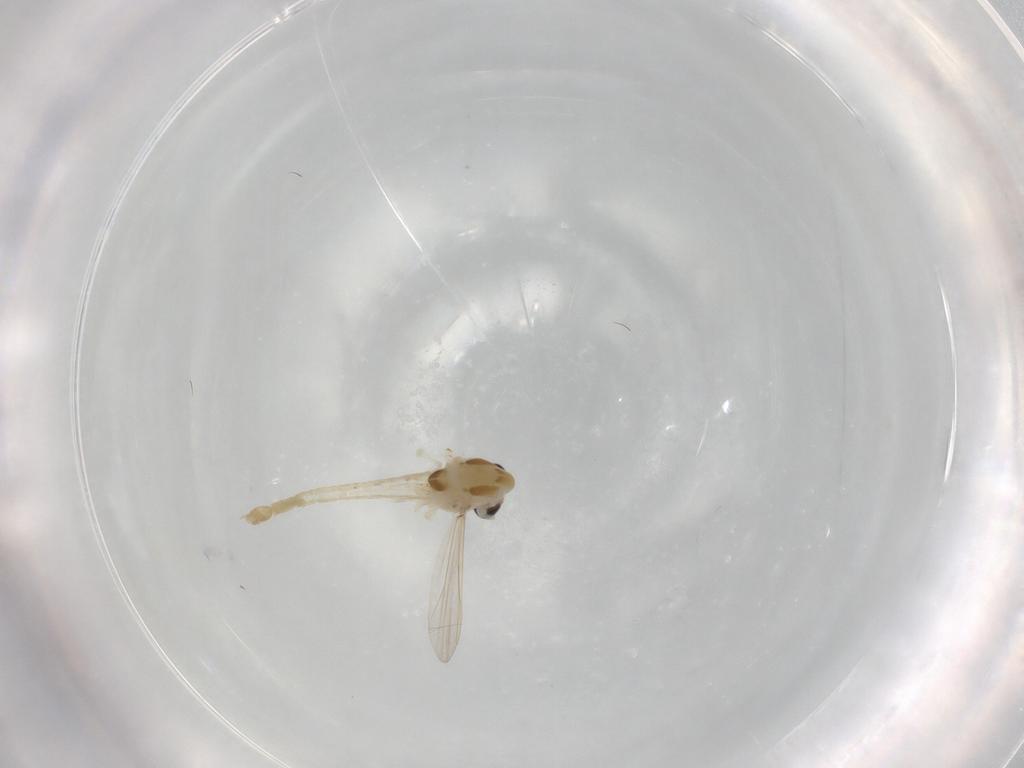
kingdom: Animalia
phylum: Arthropoda
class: Insecta
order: Diptera
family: Chironomidae
